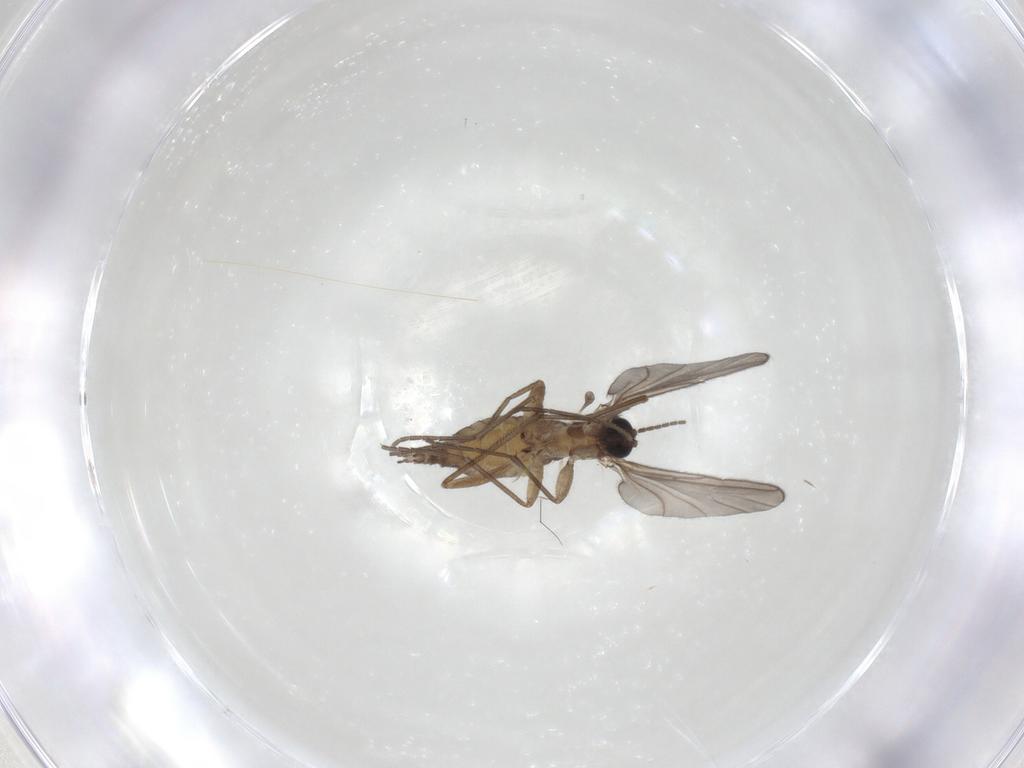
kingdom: Animalia
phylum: Arthropoda
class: Insecta
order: Diptera
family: Sciaridae
